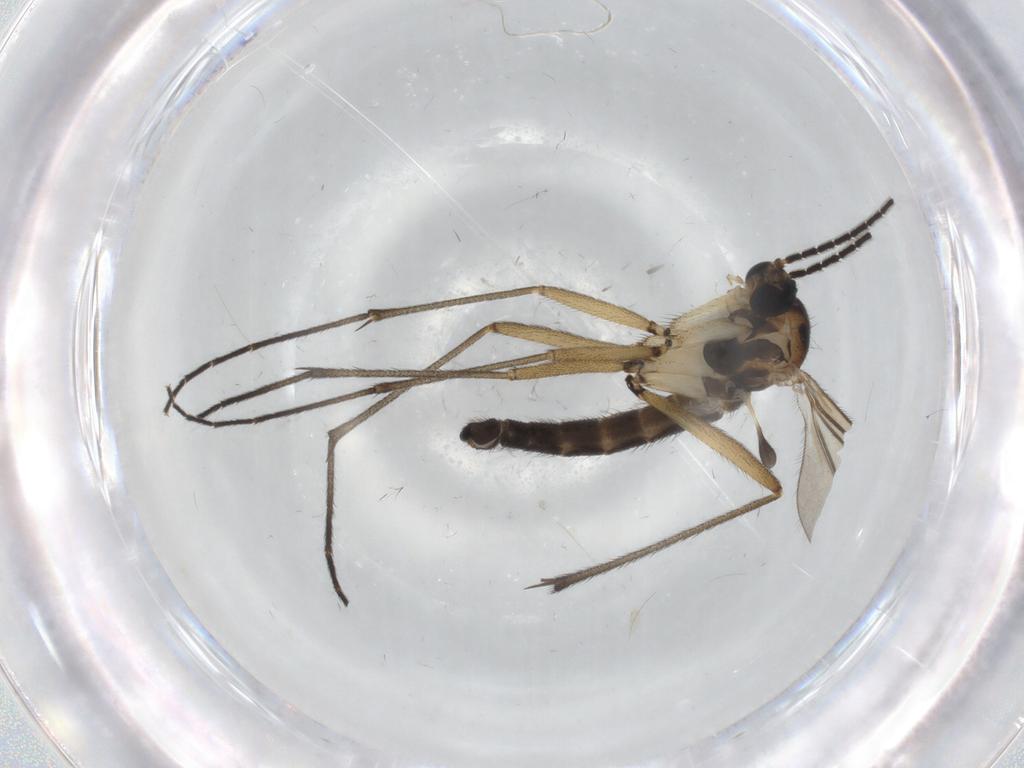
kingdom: Animalia
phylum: Arthropoda
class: Insecta
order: Diptera
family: Sciaridae
